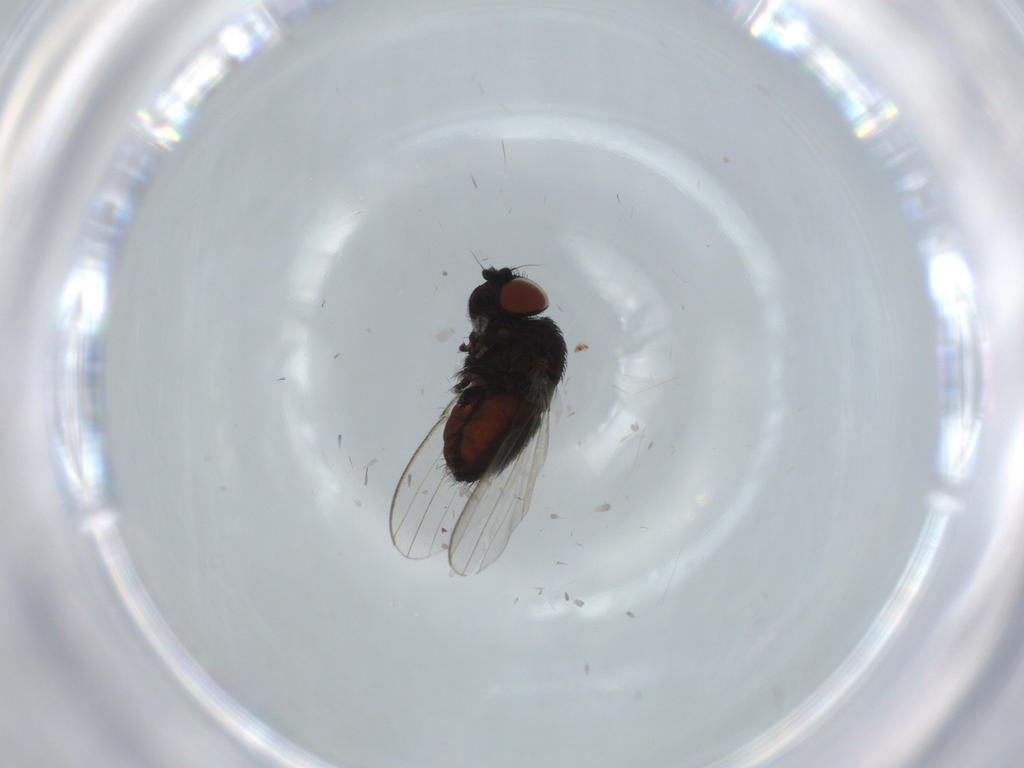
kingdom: Animalia
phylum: Arthropoda
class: Insecta
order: Diptera
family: Milichiidae
